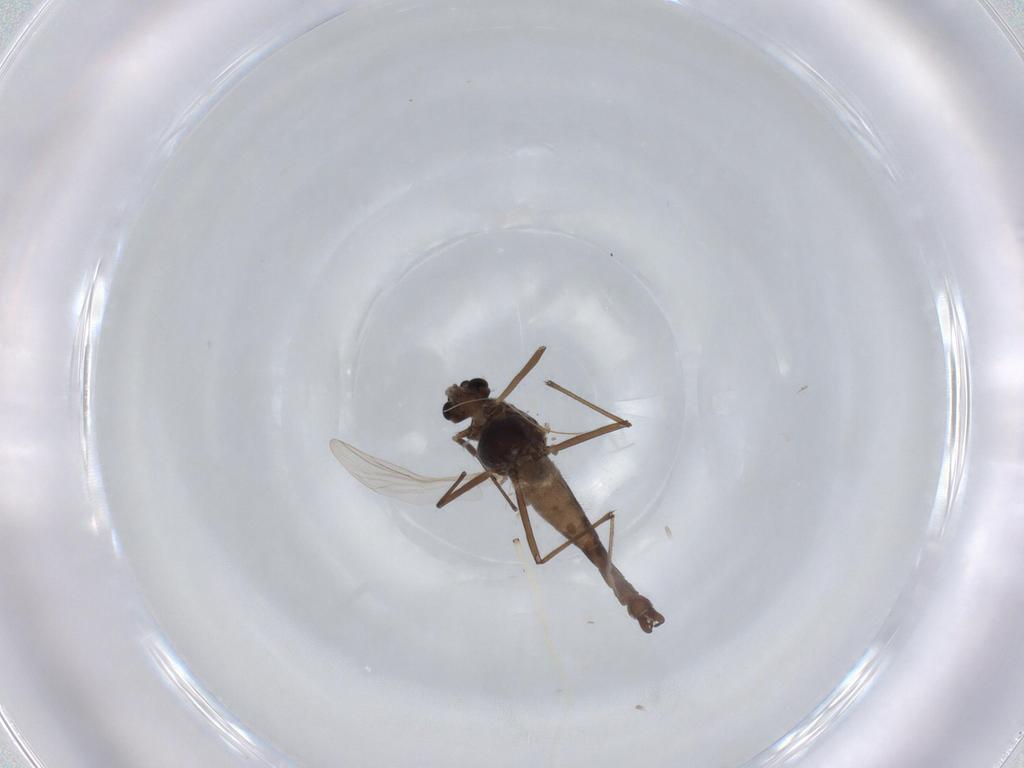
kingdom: Animalia
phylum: Arthropoda
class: Insecta
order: Diptera
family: Chironomidae
